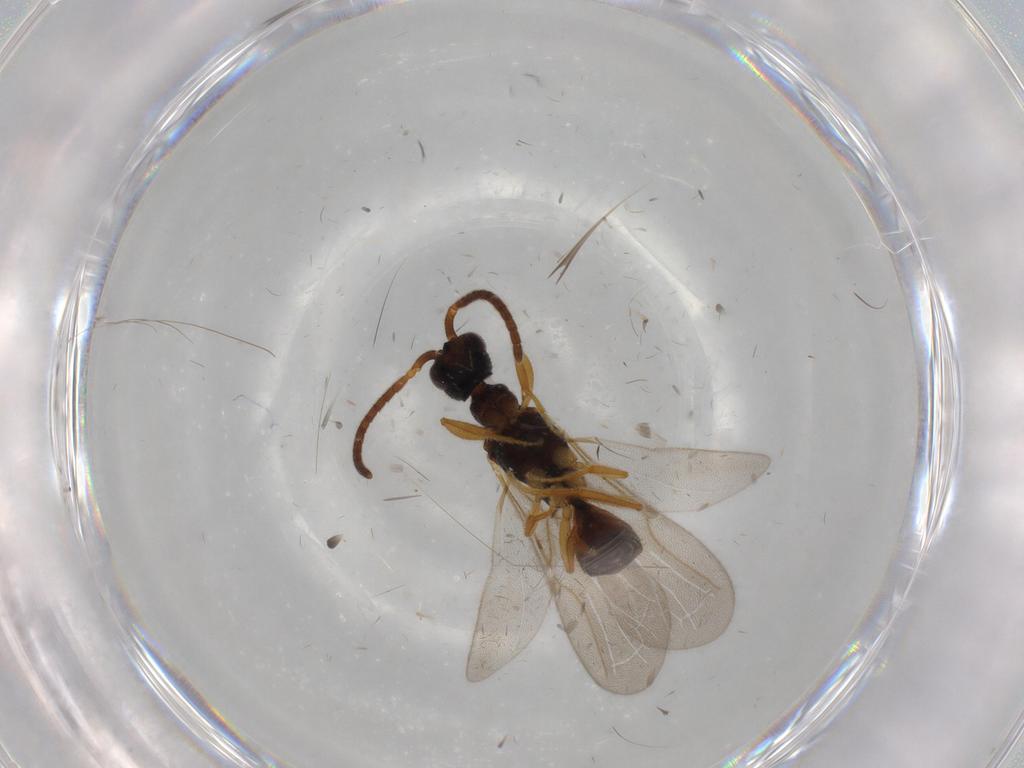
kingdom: Animalia
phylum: Arthropoda
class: Insecta
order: Hymenoptera
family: Bethylidae
